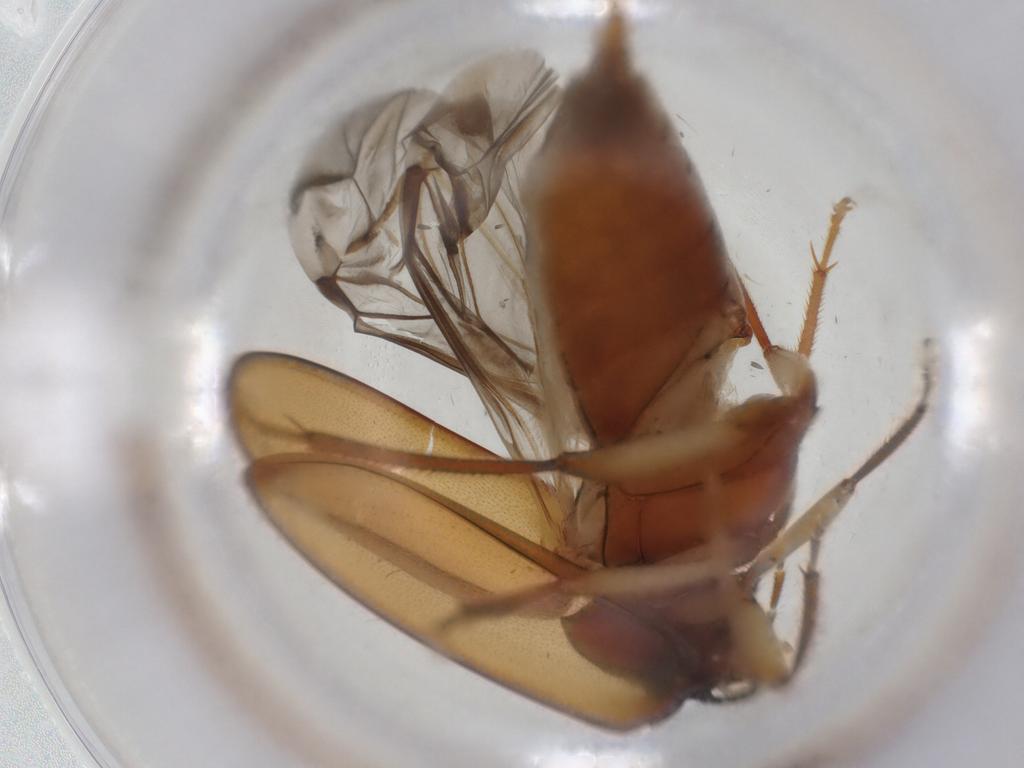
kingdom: Animalia
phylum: Arthropoda
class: Insecta
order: Coleoptera
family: Ptilodactylidae
